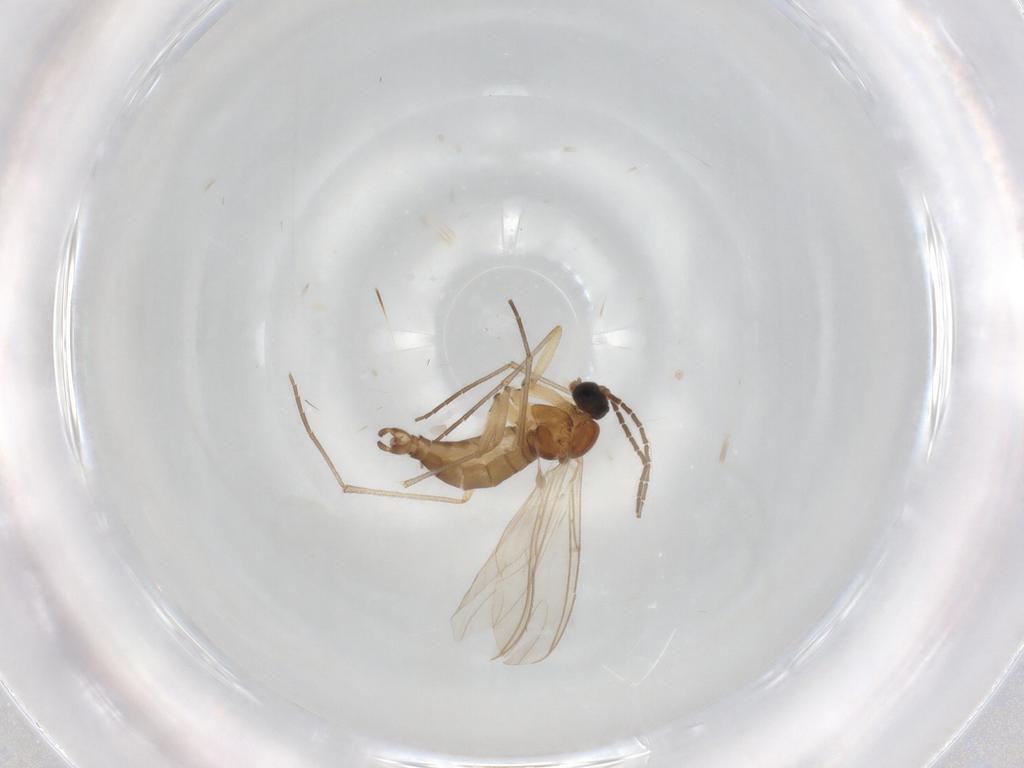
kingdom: Animalia
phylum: Arthropoda
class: Insecta
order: Diptera
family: Sciaridae
